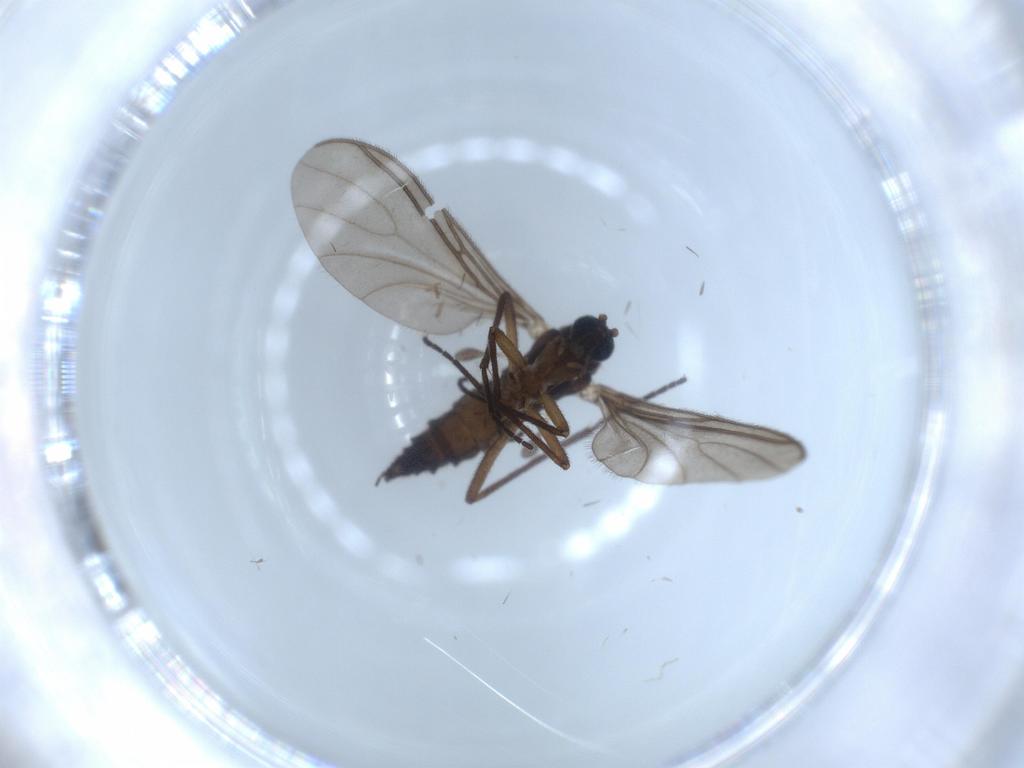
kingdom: Animalia
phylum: Arthropoda
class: Insecta
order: Diptera
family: Sciaridae
